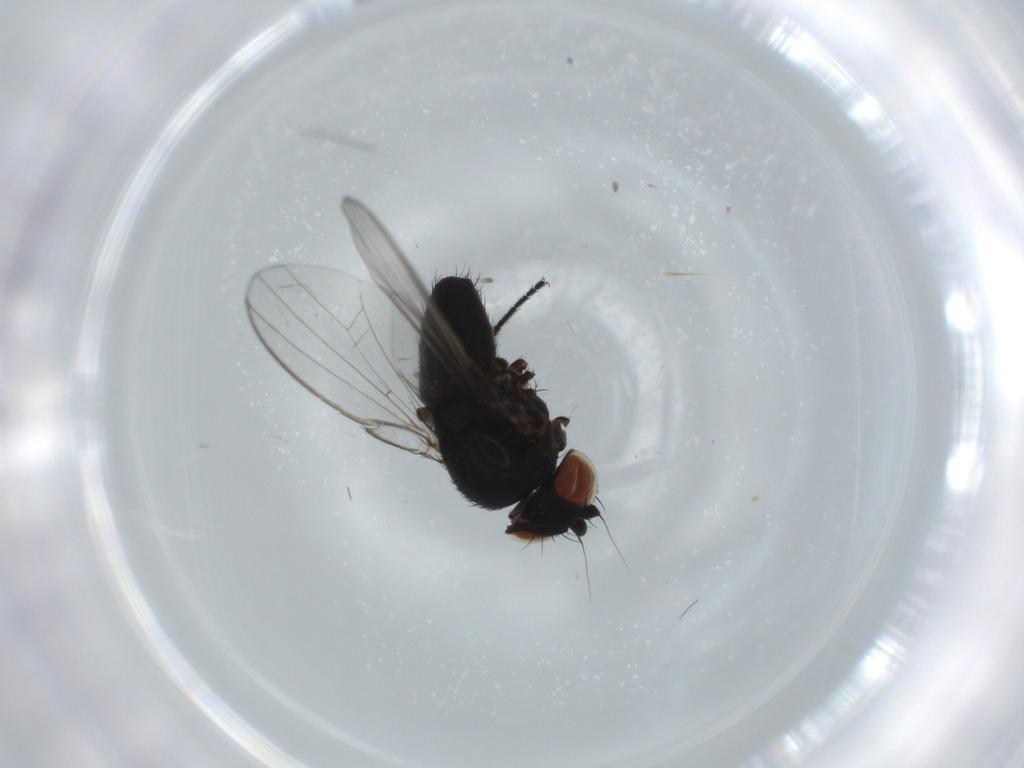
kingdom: Animalia
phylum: Arthropoda
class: Insecta
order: Diptera
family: Milichiidae
